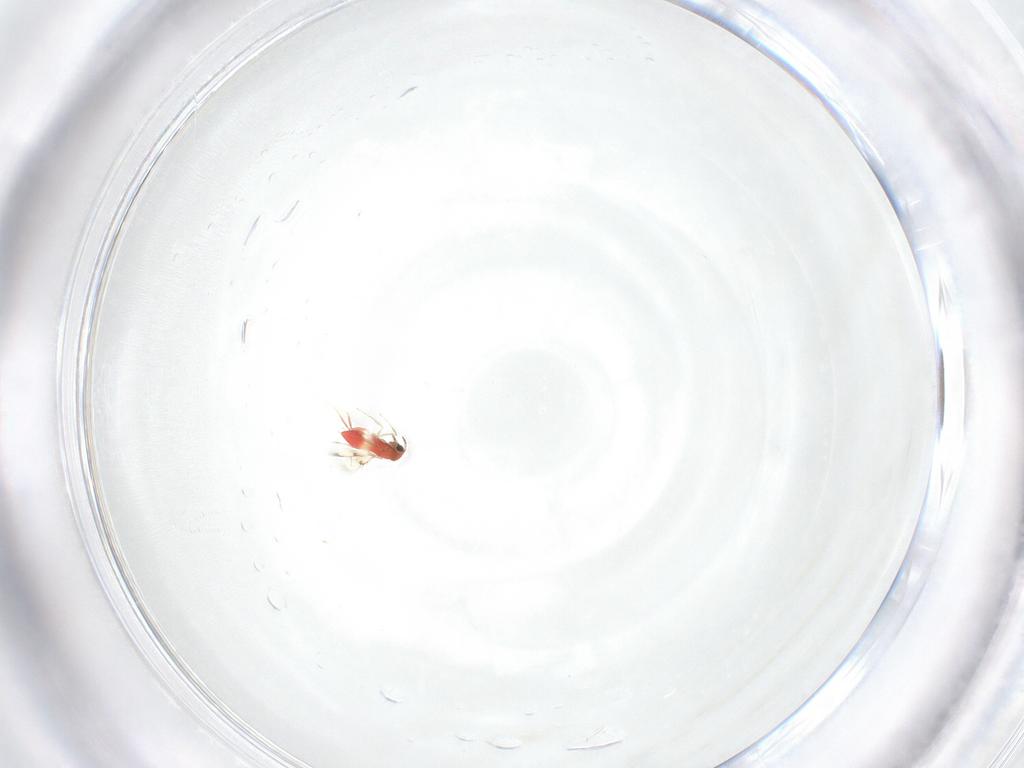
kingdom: Animalia
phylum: Arthropoda
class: Insecta
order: Hymenoptera
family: Trichogrammatidae
